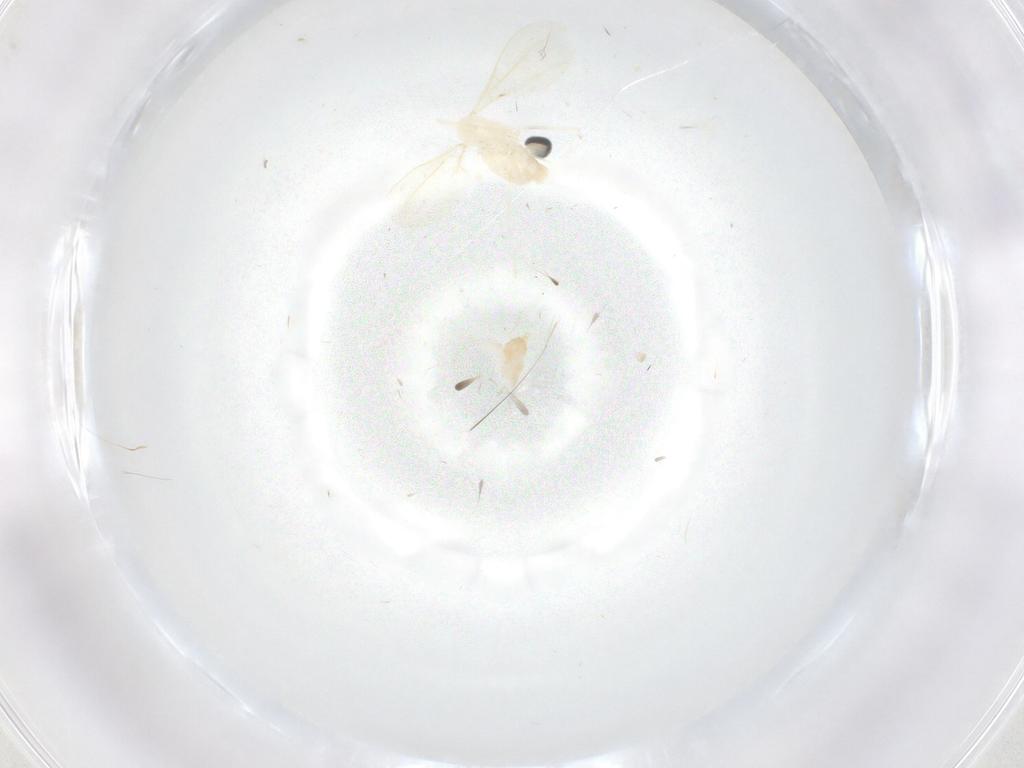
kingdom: Animalia
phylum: Arthropoda
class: Insecta
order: Diptera
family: Cecidomyiidae
